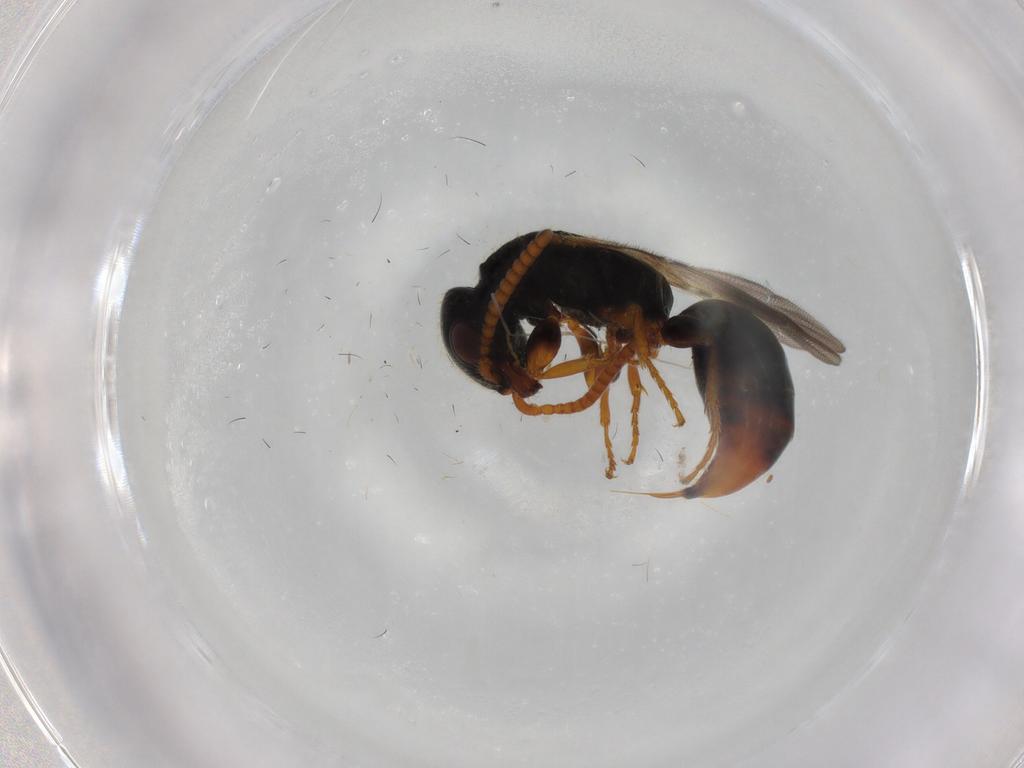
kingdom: Animalia
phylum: Arthropoda
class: Insecta
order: Hymenoptera
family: Bethylidae
